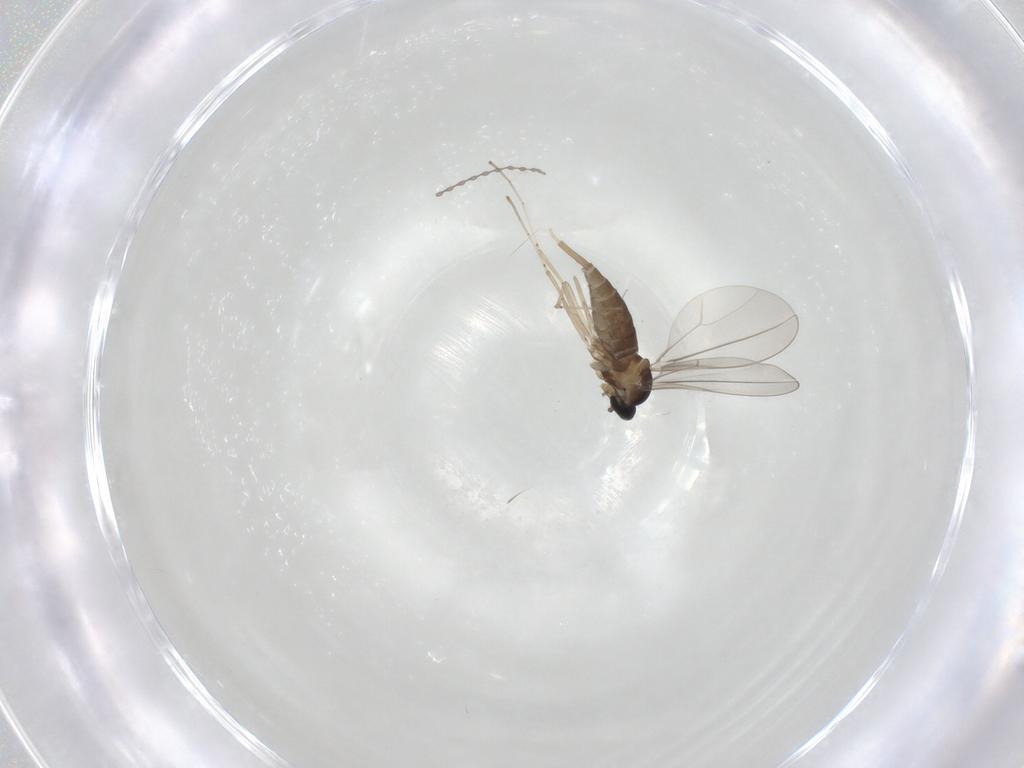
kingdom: Animalia
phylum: Arthropoda
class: Insecta
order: Diptera
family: Cecidomyiidae
